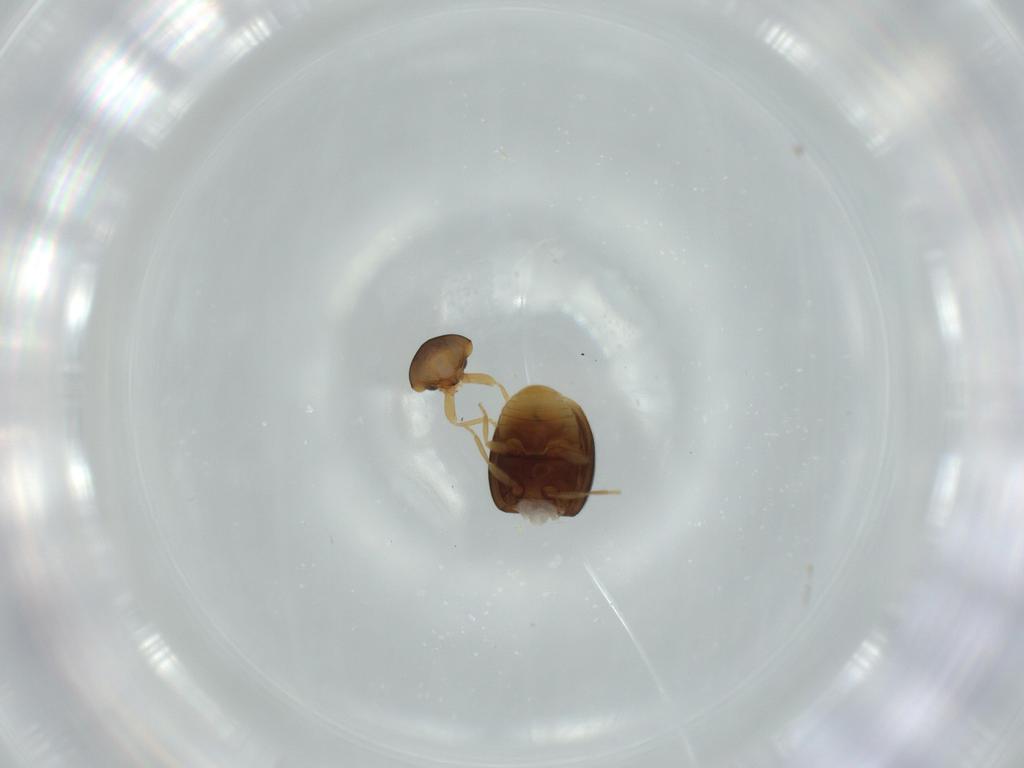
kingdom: Animalia
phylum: Arthropoda
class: Insecta
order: Coleoptera
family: Coccinellidae
